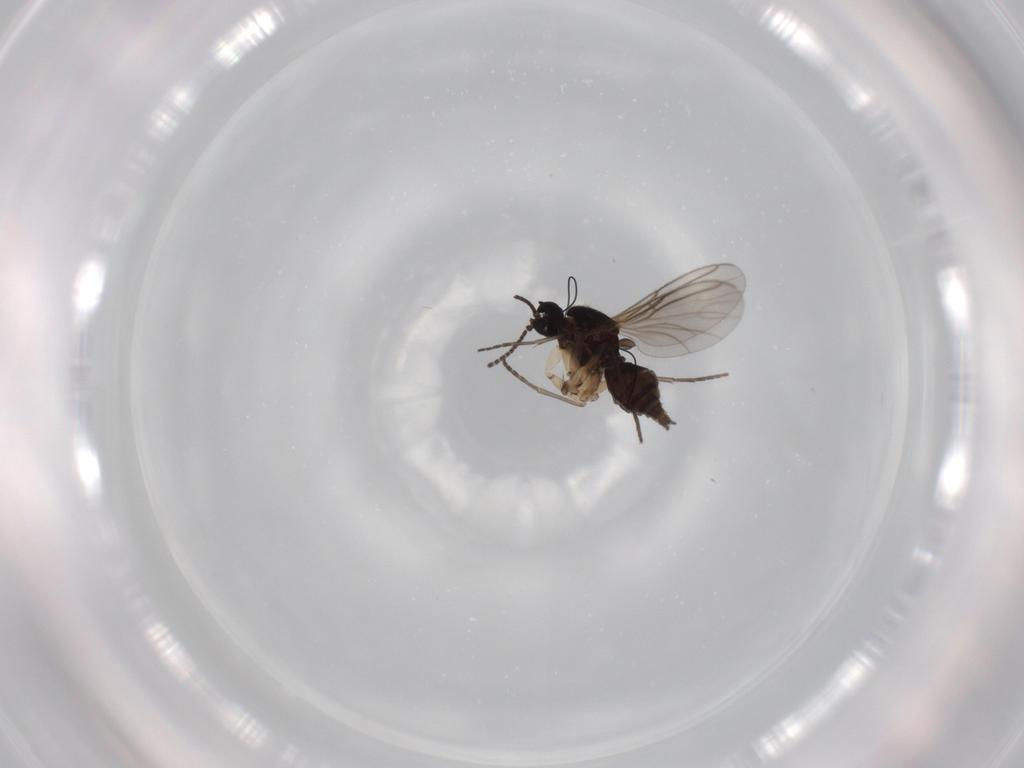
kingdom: Animalia
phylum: Arthropoda
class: Insecta
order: Diptera
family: Sciaridae
